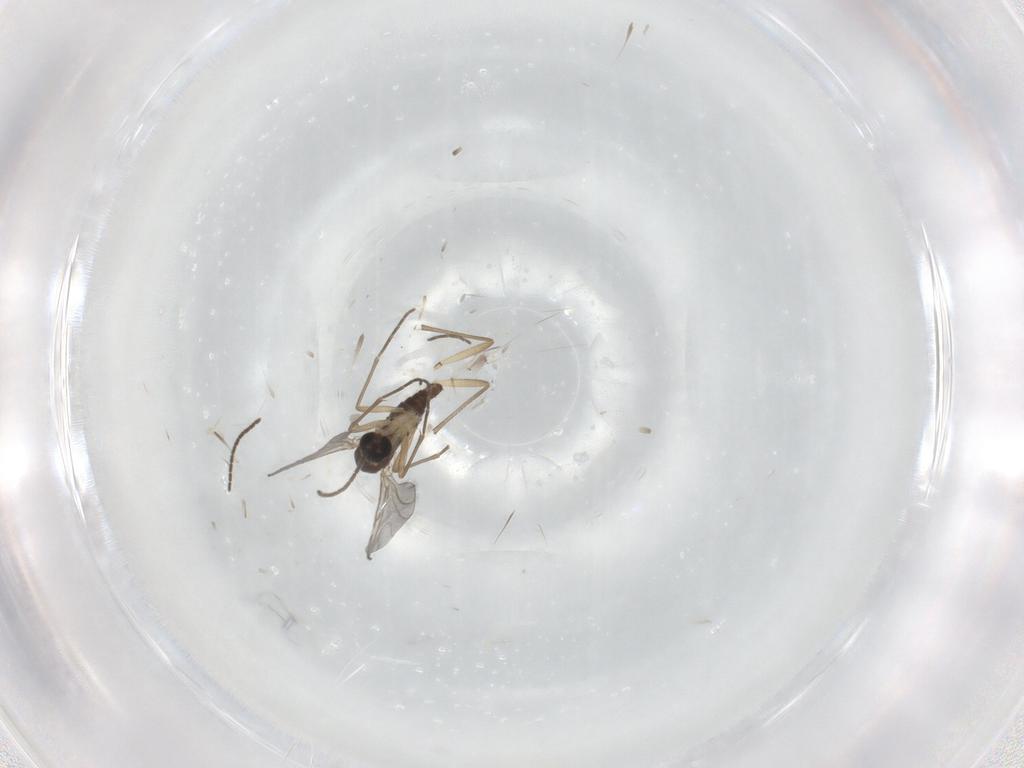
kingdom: Animalia
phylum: Arthropoda
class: Insecta
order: Diptera
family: Sciaridae
